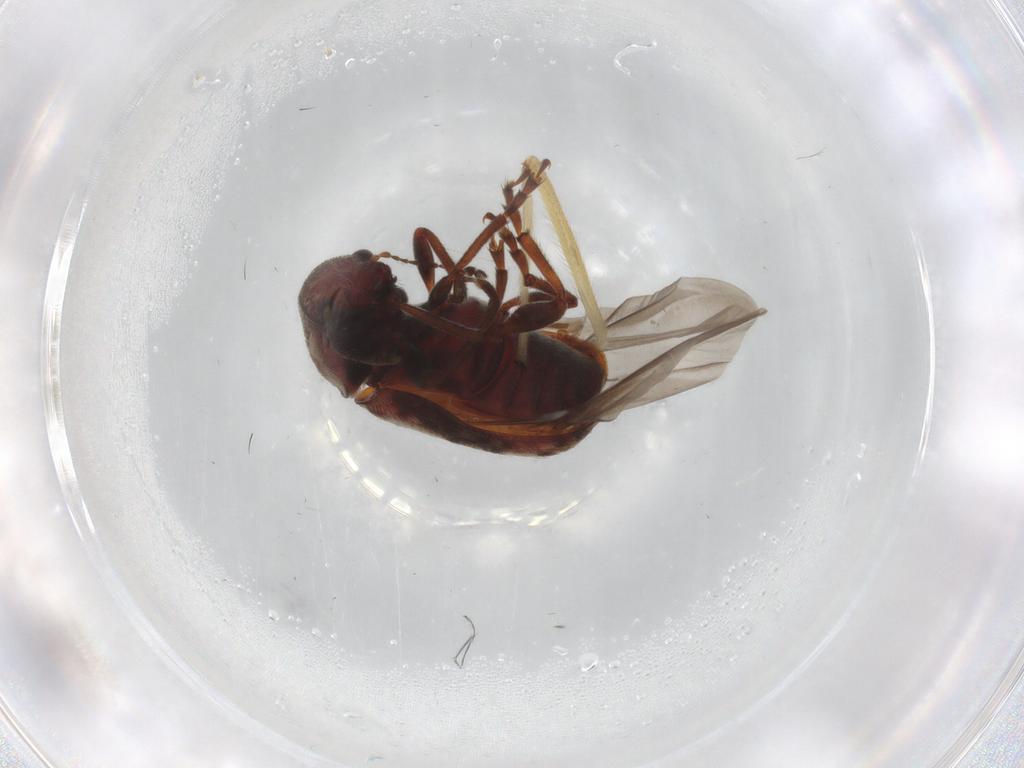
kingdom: Animalia
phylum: Arthropoda
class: Insecta
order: Coleoptera
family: Anthribidae
